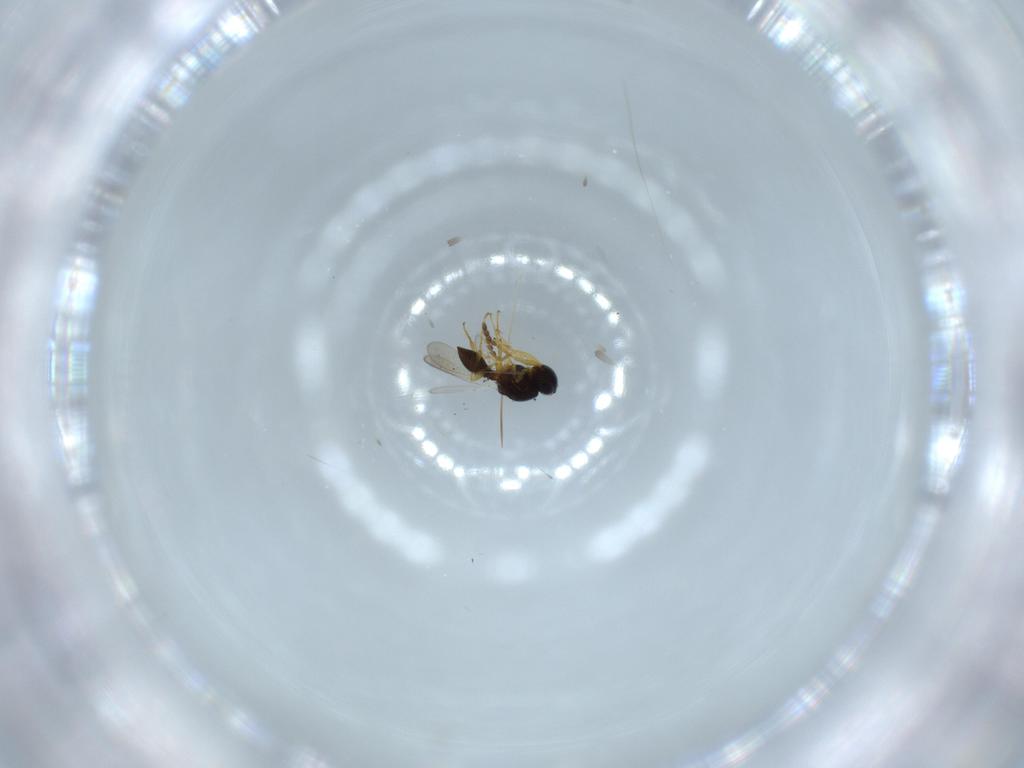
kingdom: Animalia
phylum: Arthropoda
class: Insecta
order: Hymenoptera
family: Platygastridae
